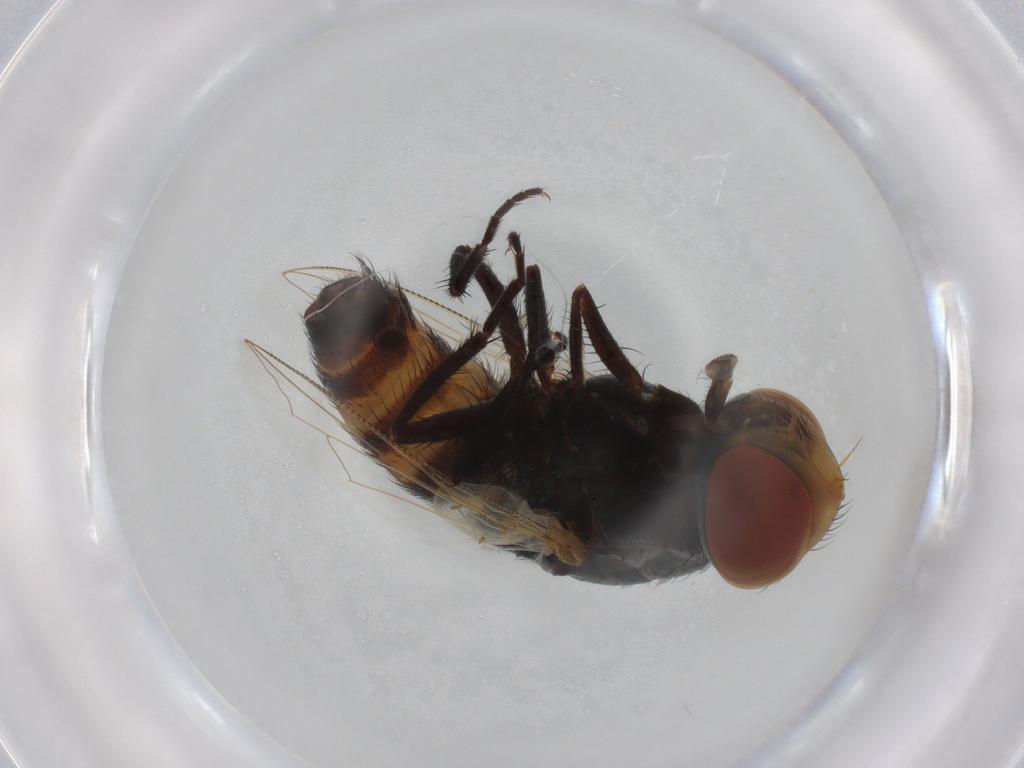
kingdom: Animalia
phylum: Arthropoda
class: Insecta
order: Diptera
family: Sarcophagidae
